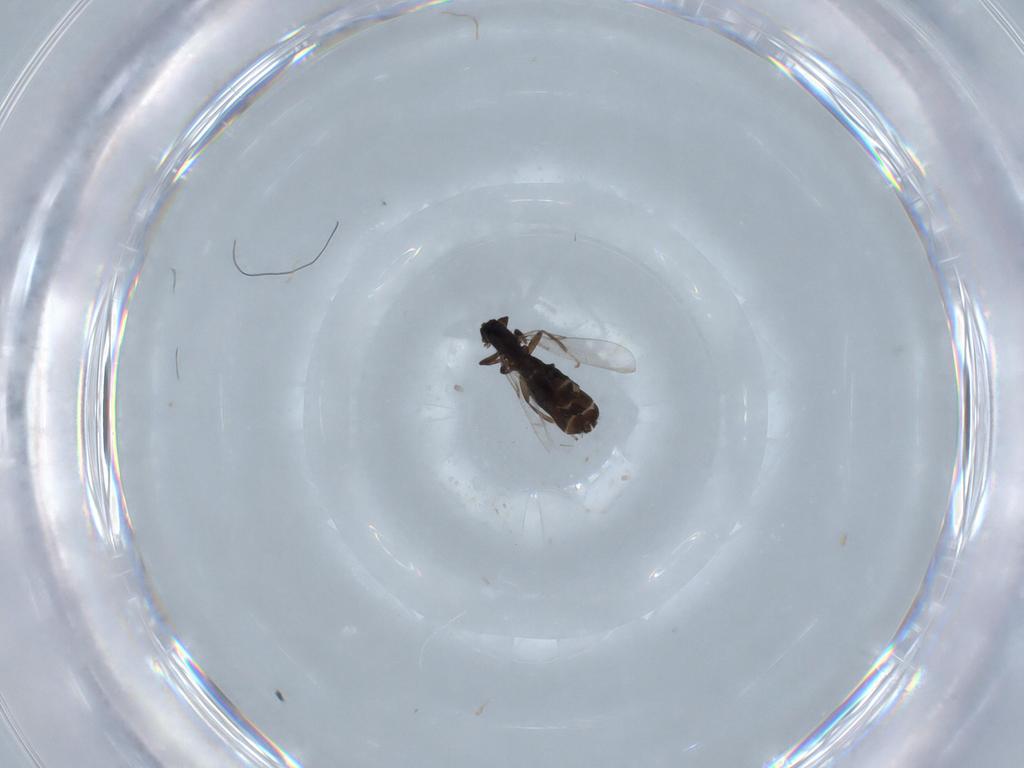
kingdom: Animalia
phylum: Arthropoda
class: Insecta
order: Diptera
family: Scatopsidae
